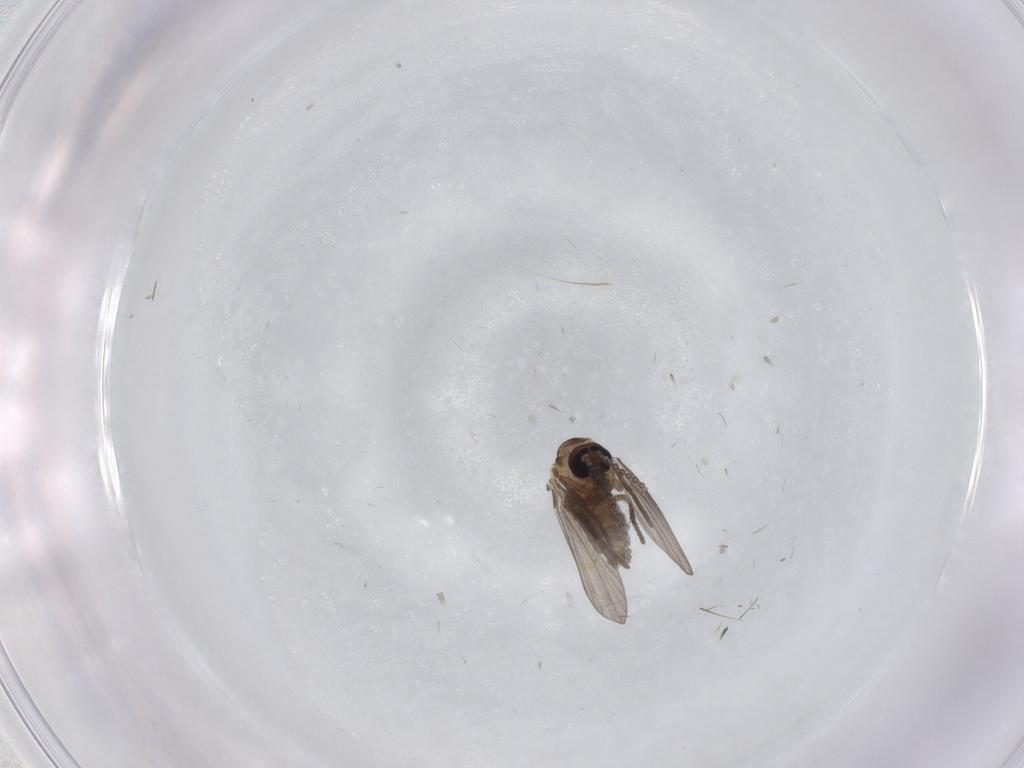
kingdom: Animalia
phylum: Arthropoda
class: Insecta
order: Diptera
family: Psychodidae
